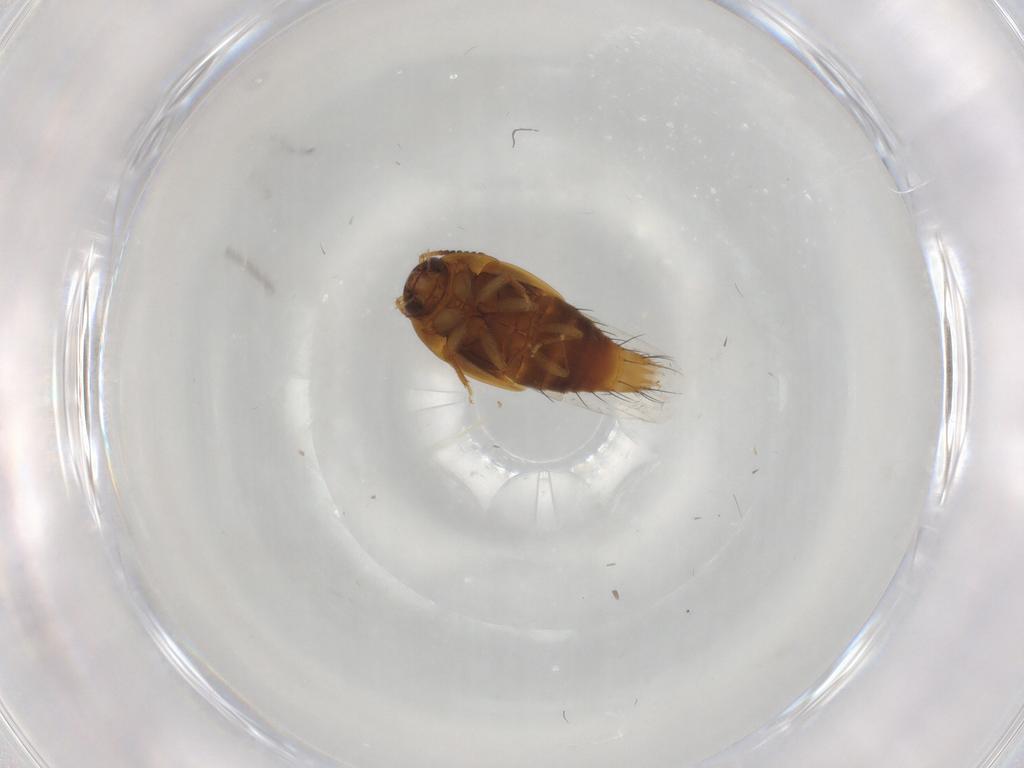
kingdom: Animalia
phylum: Arthropoda
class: Insecta
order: Coleoptera
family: Staphylinidae
